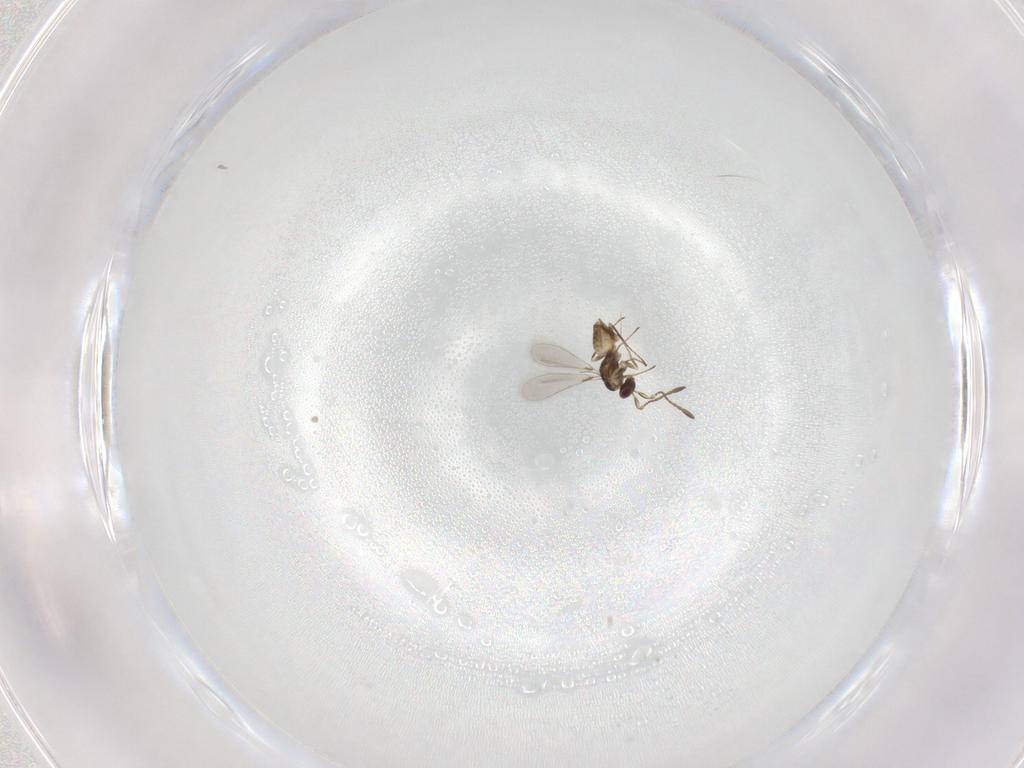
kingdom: Animalia
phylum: Arthropoda
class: Insecta
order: Hymenoptera
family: Mymaridae
